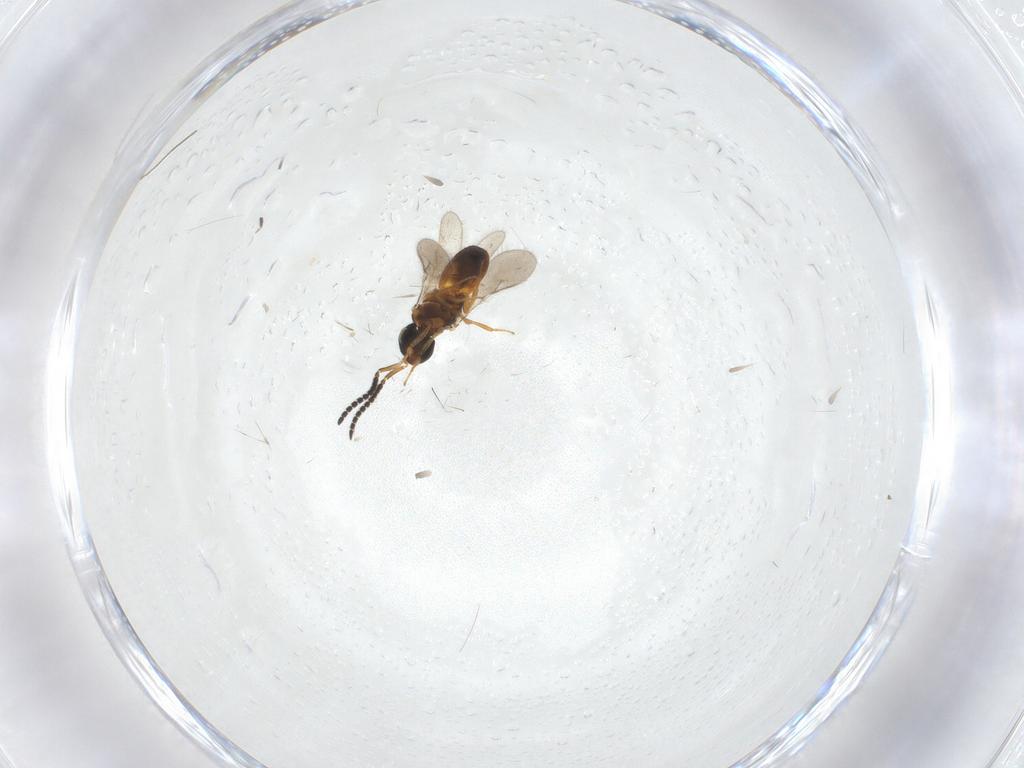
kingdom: Animalia
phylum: Arthropoda
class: Insecta
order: Hymenoptera
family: Scelionidae
